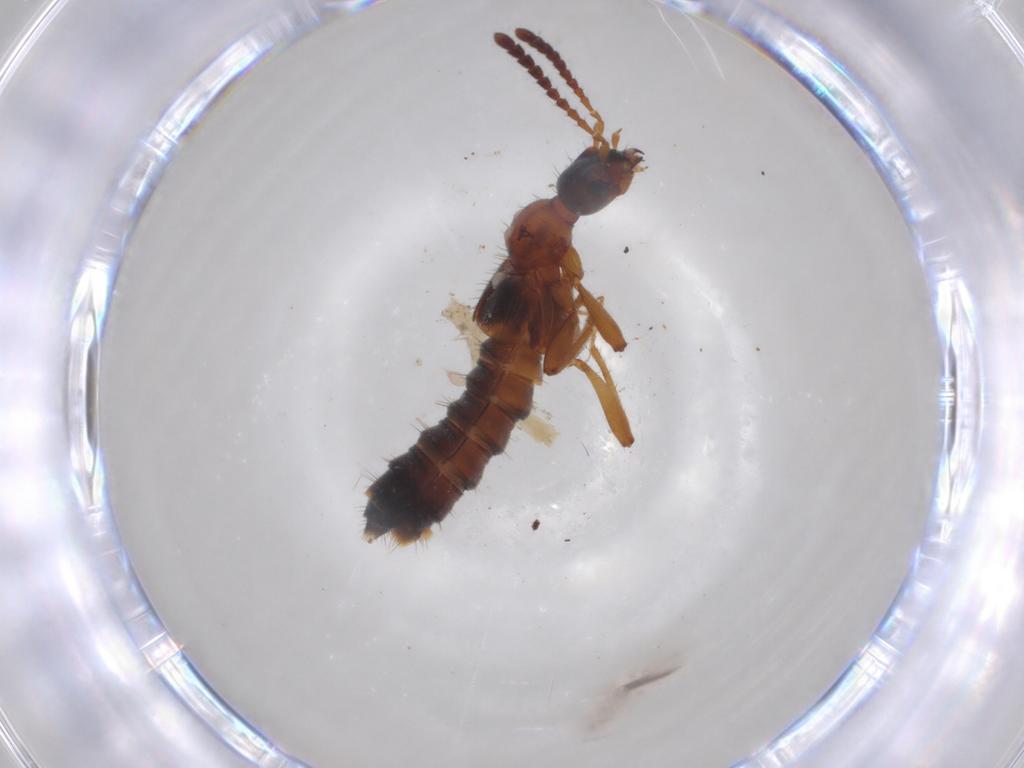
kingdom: Animalia
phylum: Arthropoda
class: Insecta
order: Coleoptera
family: Staphylinidae
